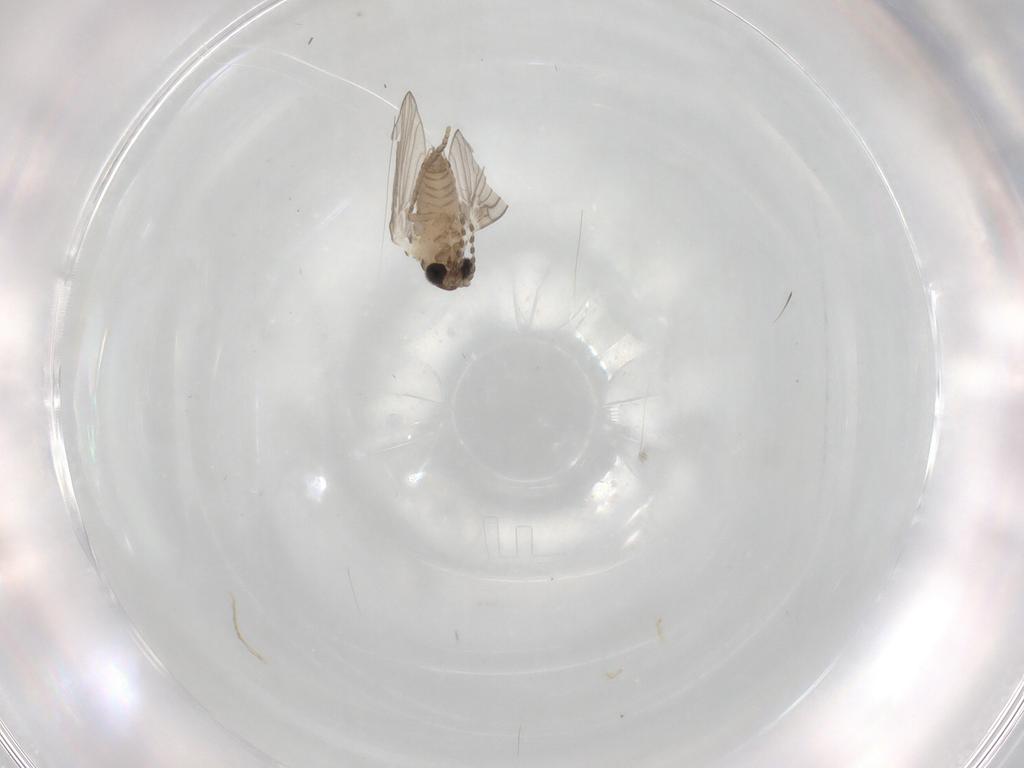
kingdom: Animalia
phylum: Arthropoda
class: Insecta
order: Diptera
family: Psychodidae
